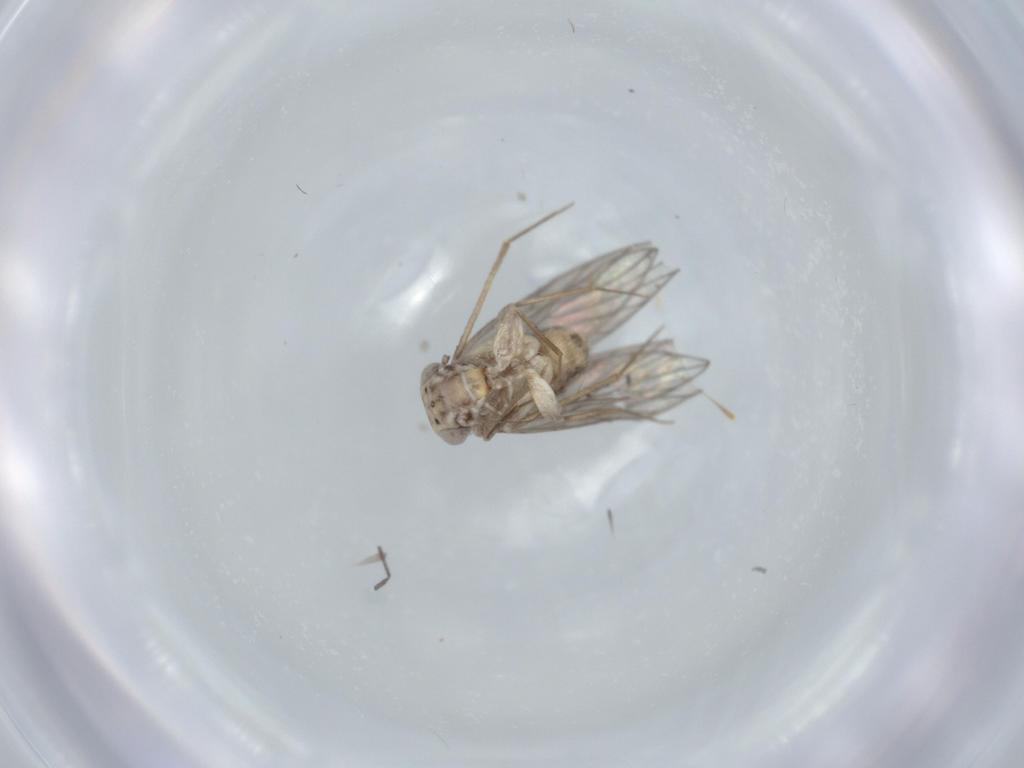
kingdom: Animalia
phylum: Arthropoda
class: Insecta
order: Psocodea
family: Lepidopsocidae
